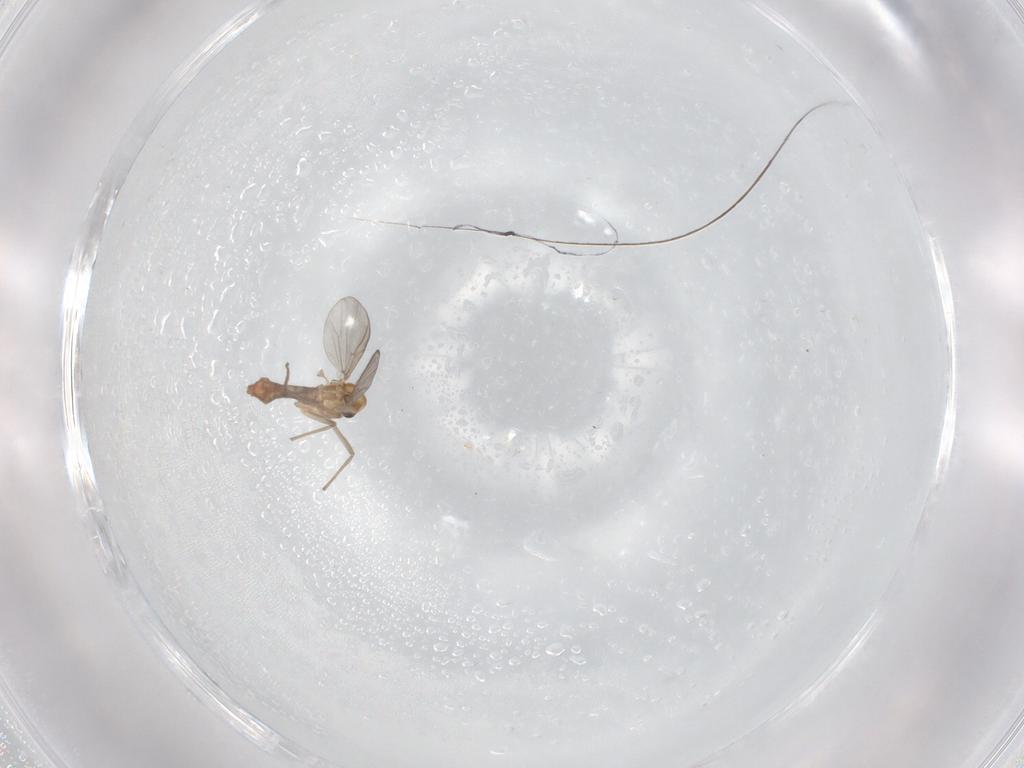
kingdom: Animalia
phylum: Arthropoda
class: Insecta
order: Diptera
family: Chironomidae
